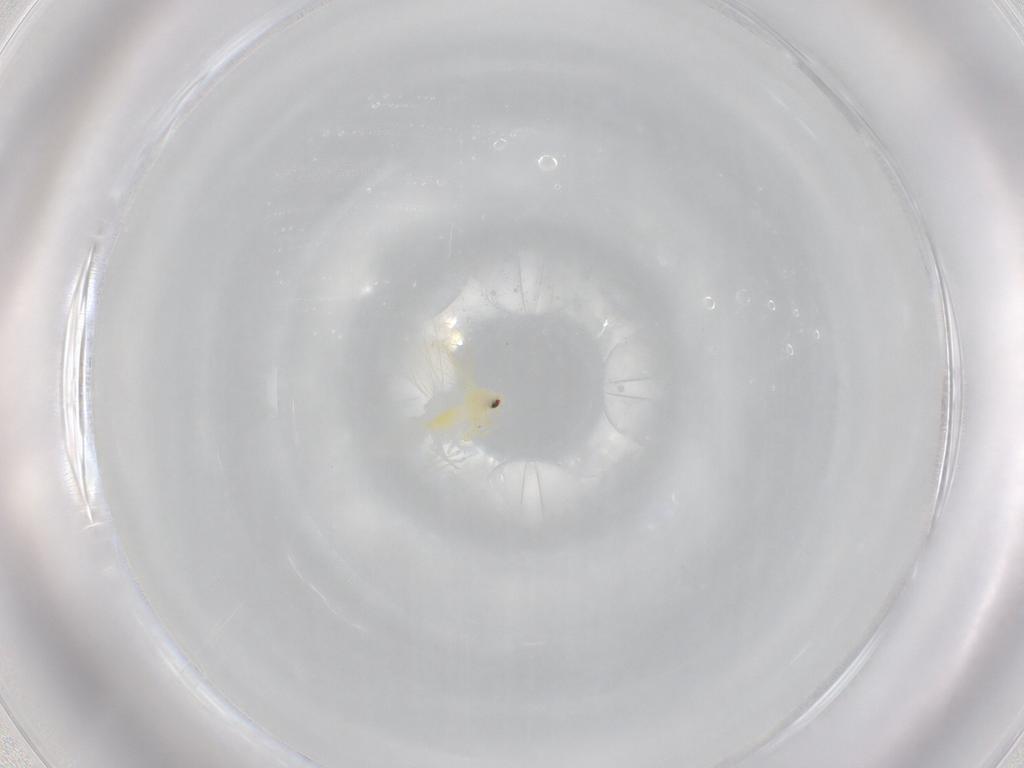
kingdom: Animalia
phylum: Arthropoda
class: Insecta
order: Hemiptera
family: Aleyrodidae
